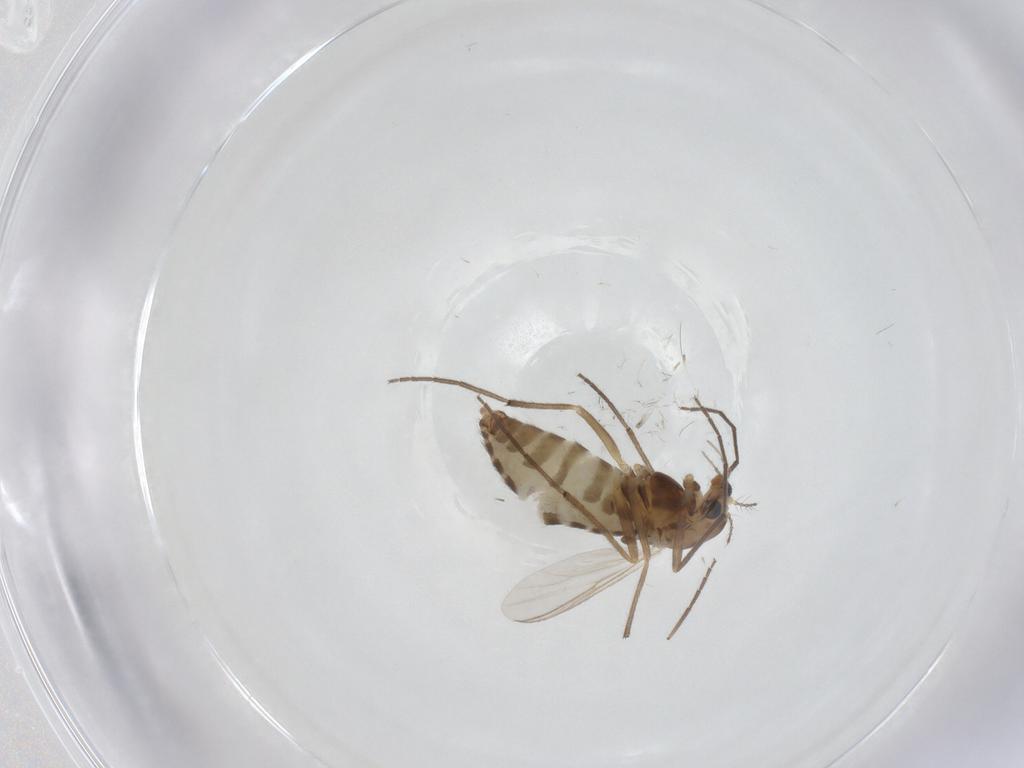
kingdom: Animalia
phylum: Arthropoda
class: Insecta
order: Diptera
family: Chironomidae
